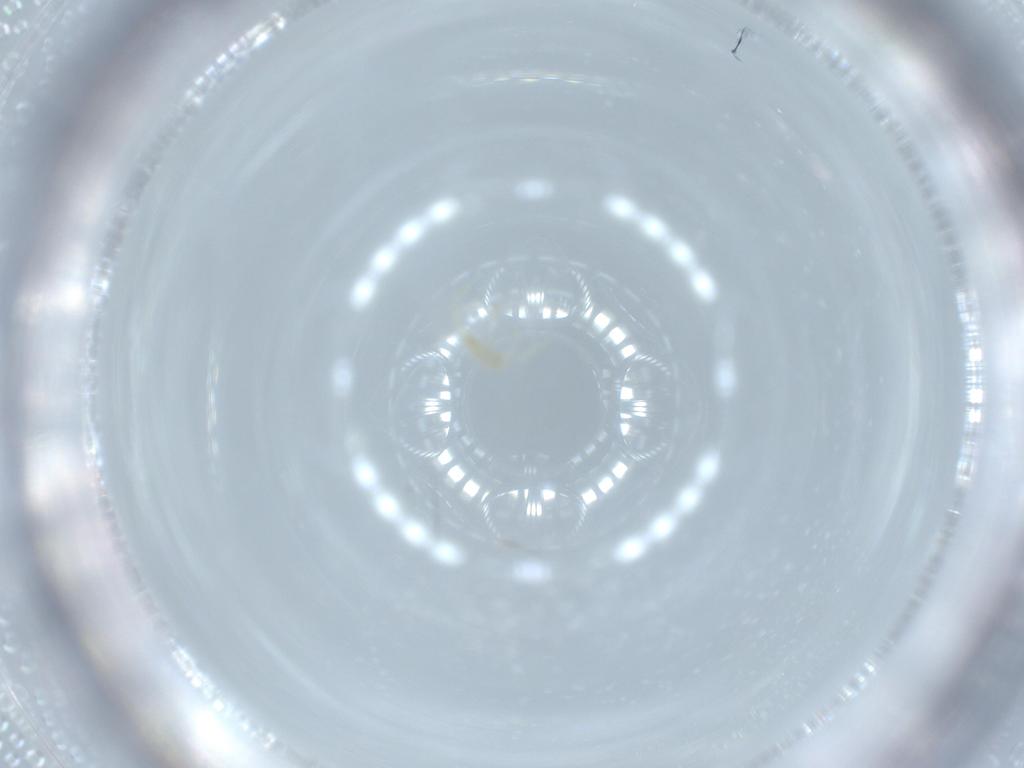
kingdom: Animalia
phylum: Arthropoda
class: Arachnida
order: Trombidiformes
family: Erythraeidae
